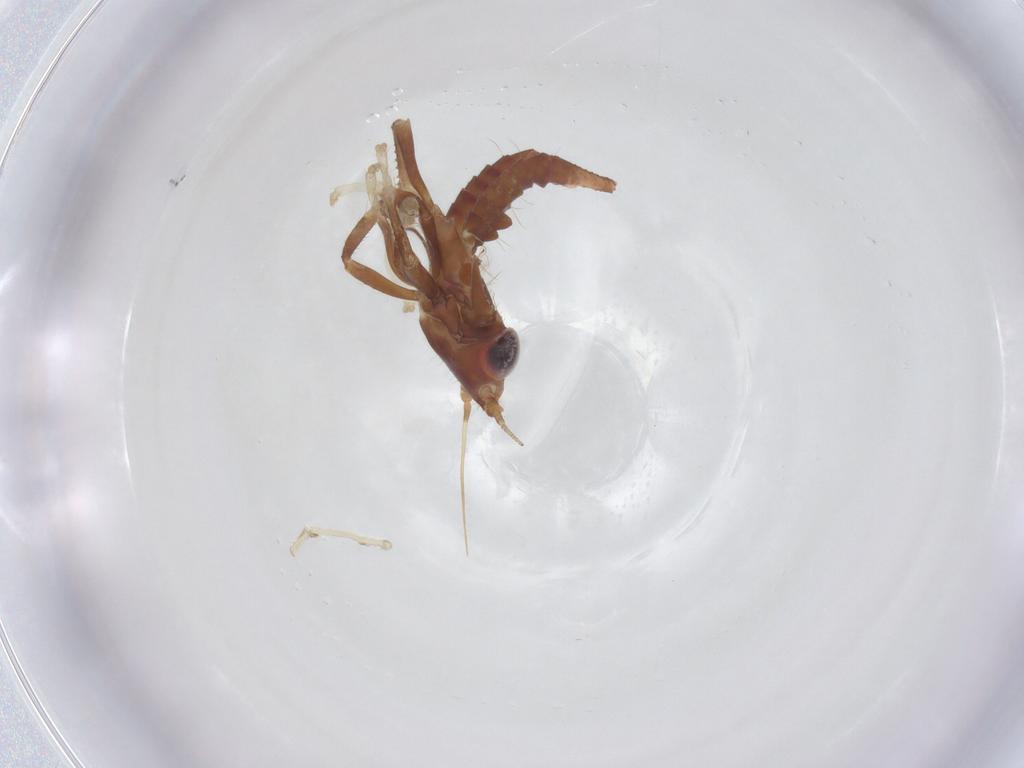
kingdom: Animalia
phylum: Arthropoda
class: Insecta
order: Hemiptera
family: Cicadellidae
